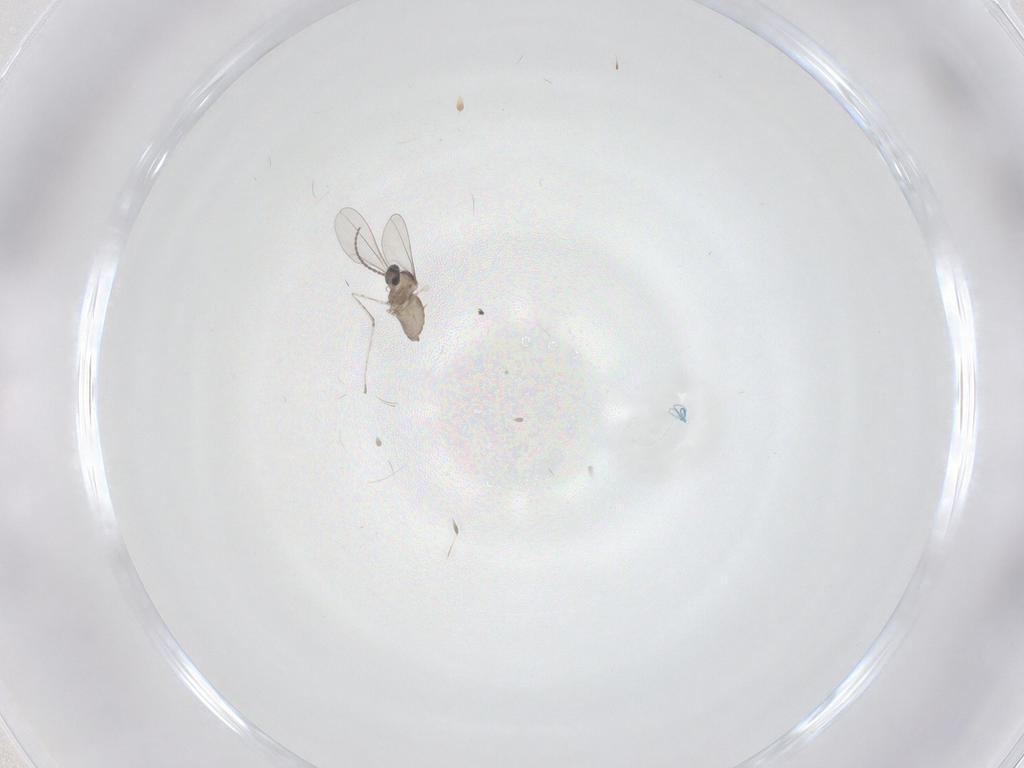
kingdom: Animalia
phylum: Arthropoda
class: Insecta
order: Diptera
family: Cecidomyiidae
